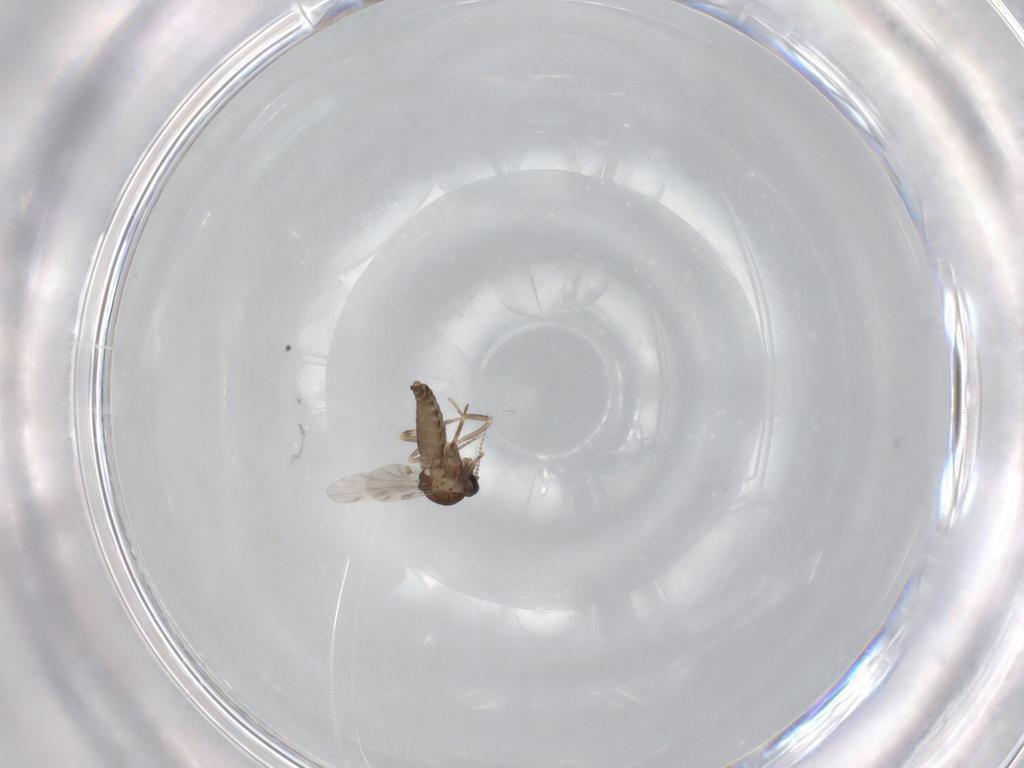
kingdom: Animalia
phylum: Arthropoda
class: Insecta
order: Diptera
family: Ceratopogonidae
